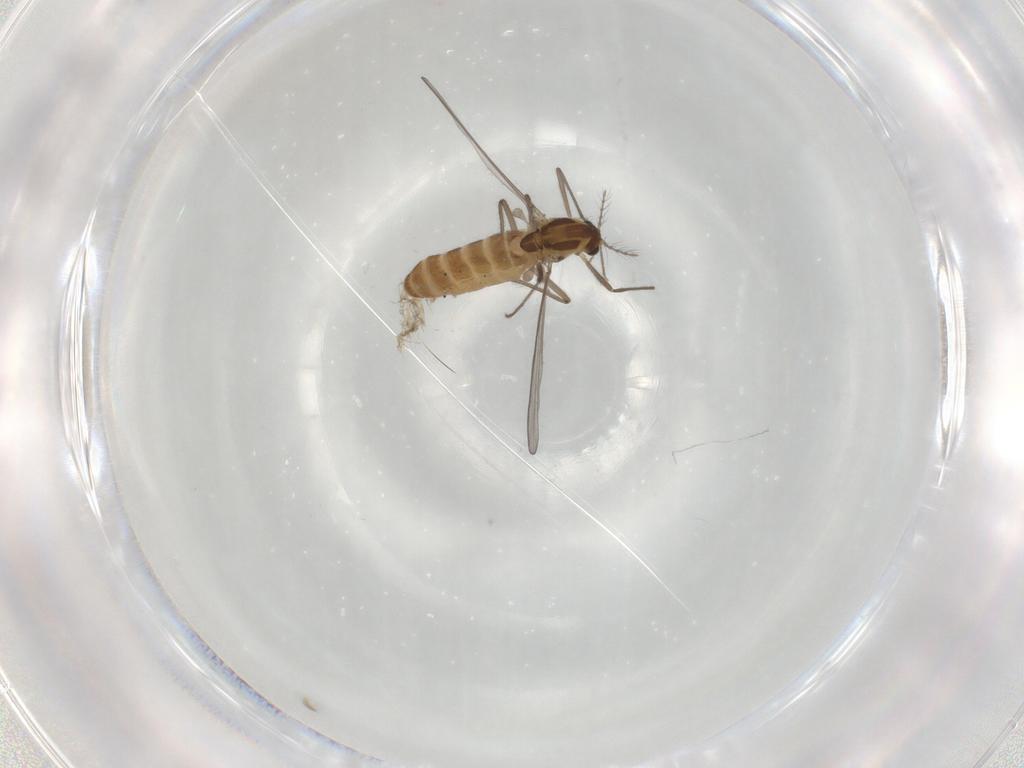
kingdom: Animalia
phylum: Arthropoda
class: Insecta
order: Diptera
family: Chironomidae
